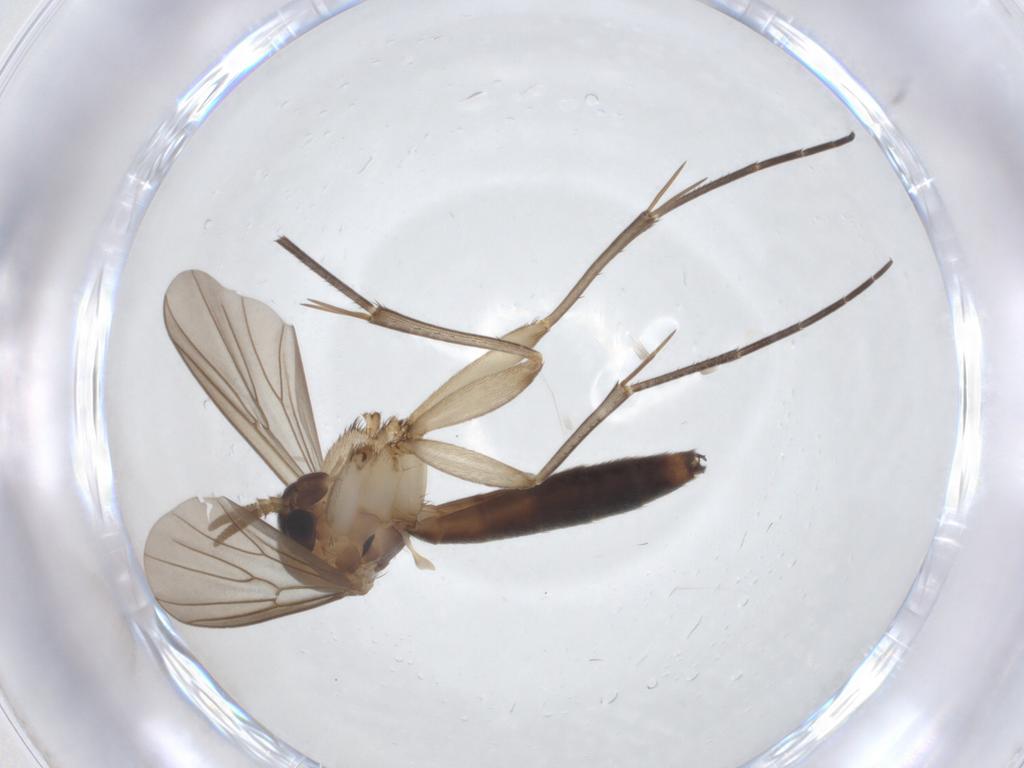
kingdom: Animalia
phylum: Arthropoda
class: Insecta
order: Diptera
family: Mycetophilidae
